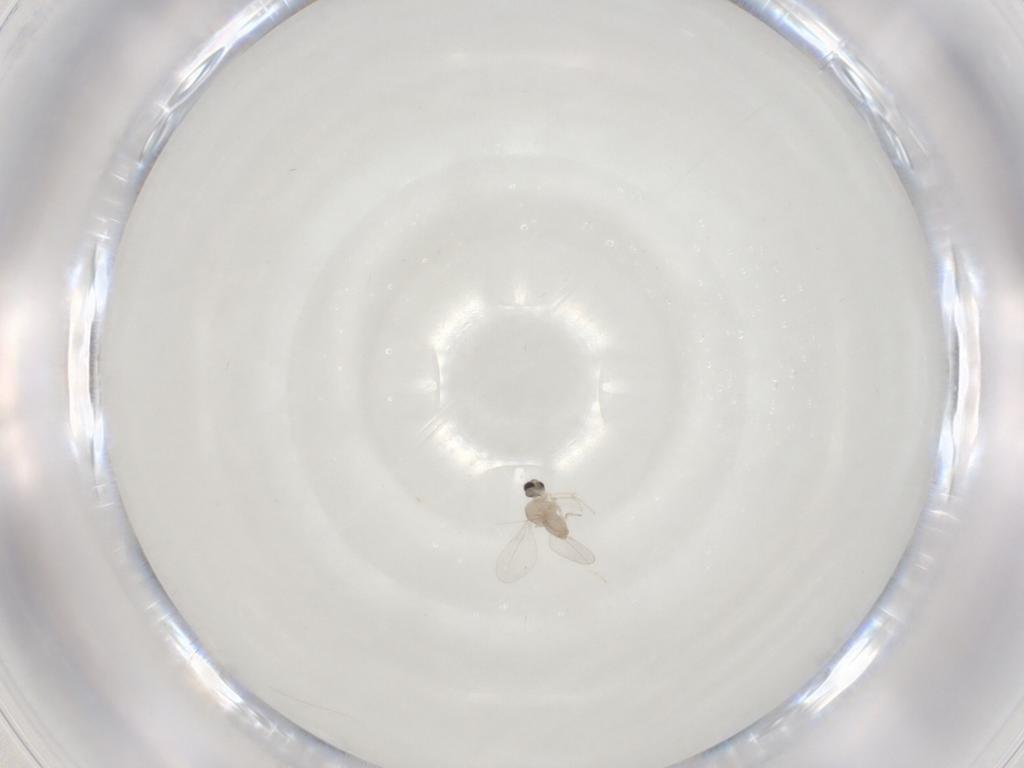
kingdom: Animalia
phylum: Arthropoda
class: Insecta
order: Diptera
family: Cecidomyiidae
